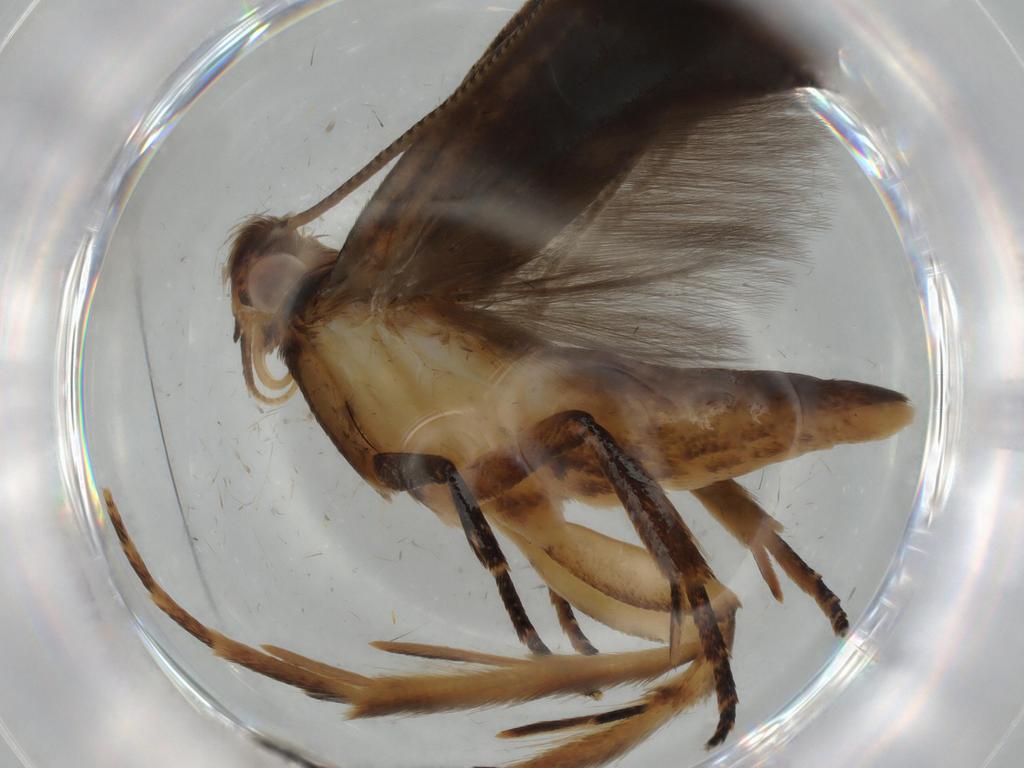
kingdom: Animalia
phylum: Arthropoda
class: Insecta
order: Lepidoptera
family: Gelechiidae
